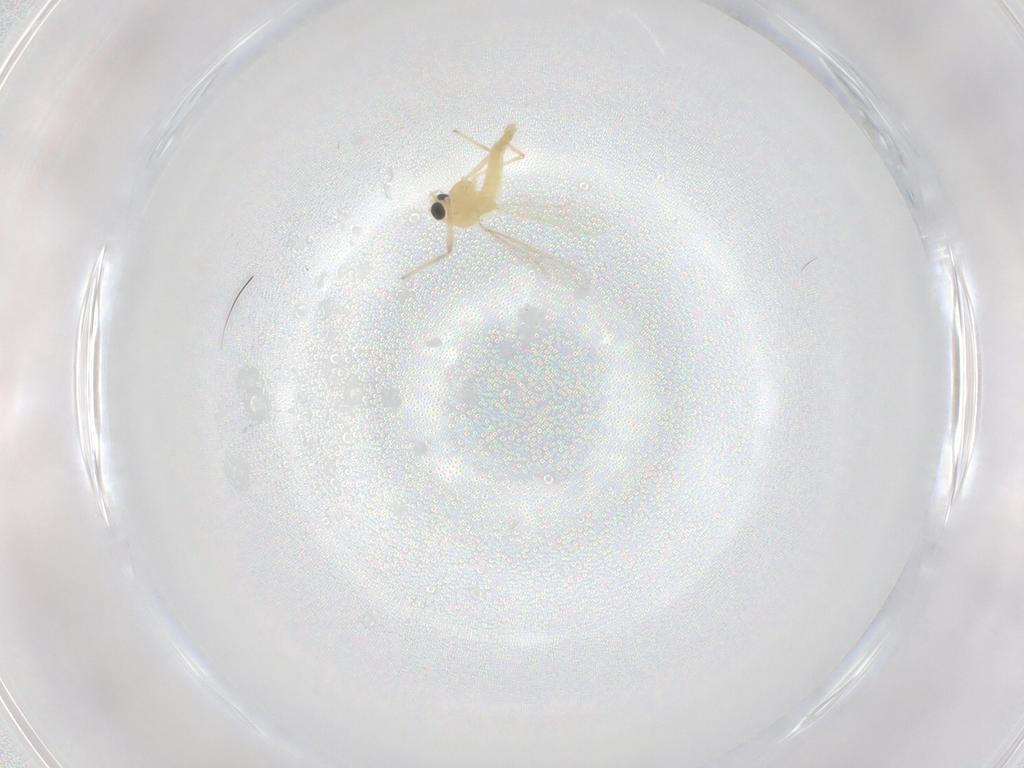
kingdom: Animalia
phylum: Arthropoda
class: Insecta
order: Diptera
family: Chironomidae
